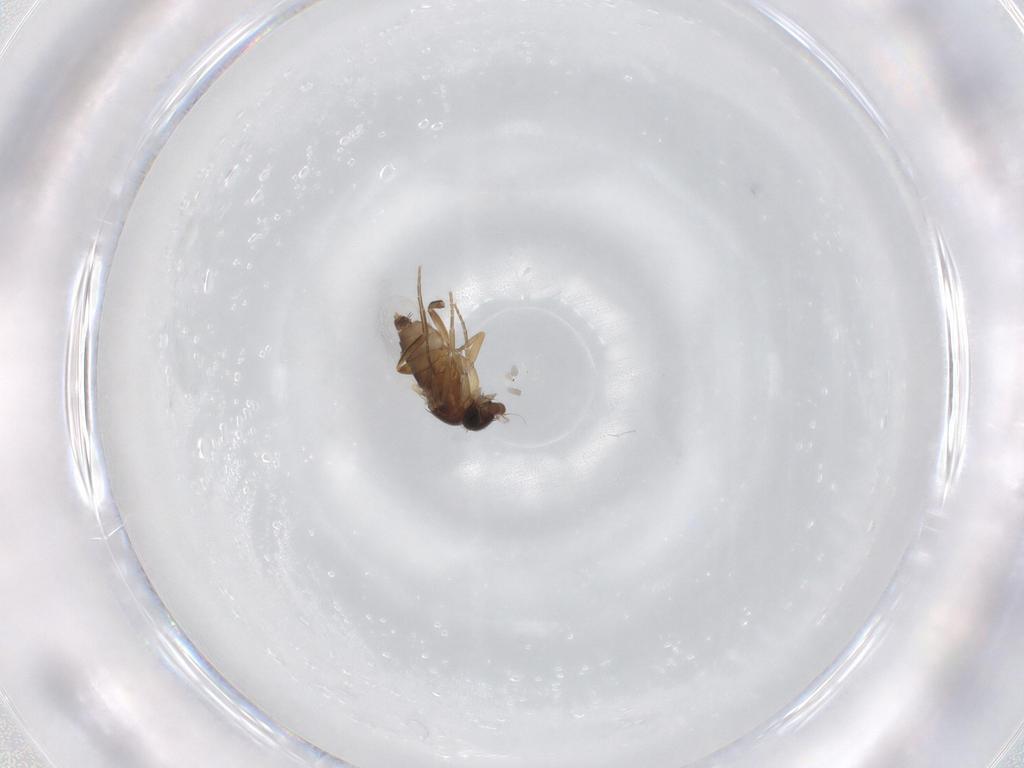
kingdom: Animalia
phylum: Arthropoda
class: Insecta
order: Diptera
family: Phoridae
